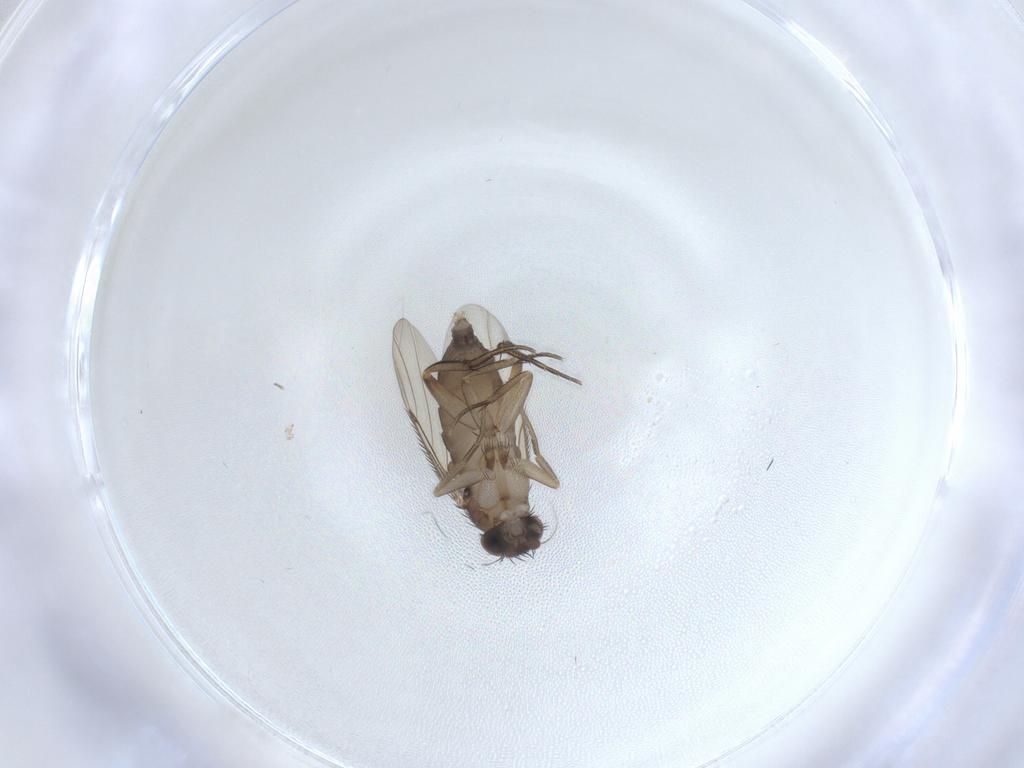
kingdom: Animalia
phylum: Arthropoda
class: Insecta
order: Diptera
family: Phoridae
